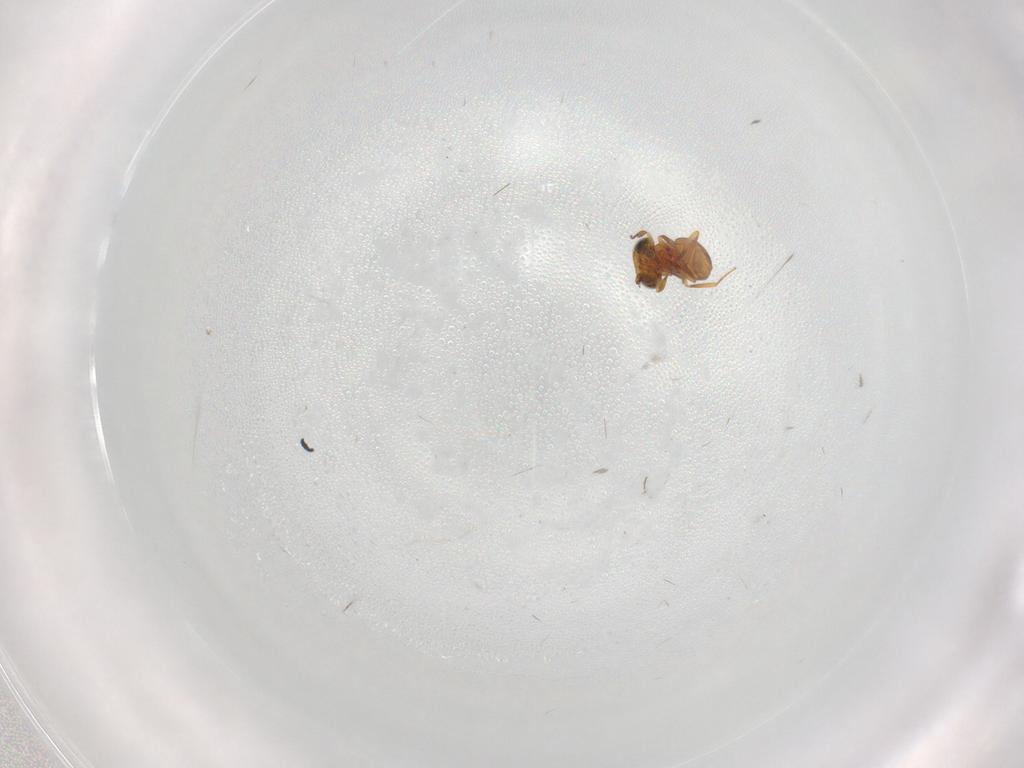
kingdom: Animalia
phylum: Arthropoda
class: Insecta
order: Hymenoptera
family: Scelionidae
